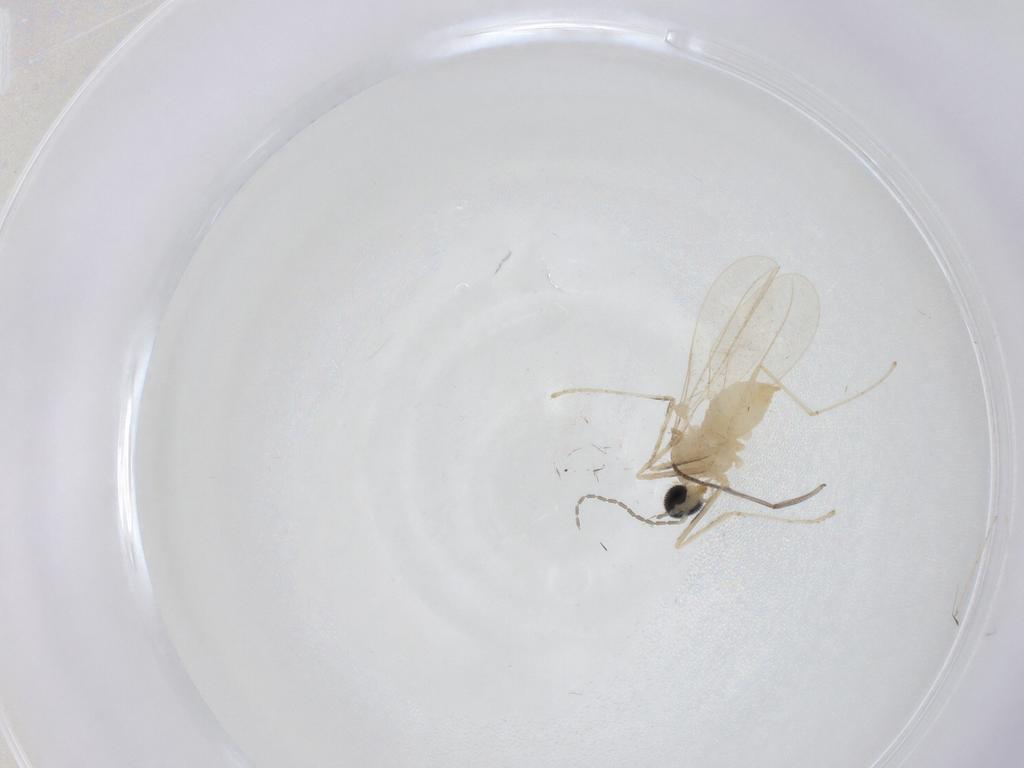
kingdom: Animalia
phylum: Arthropoda
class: Insecta
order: Diptera
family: Cecidomyiidae
